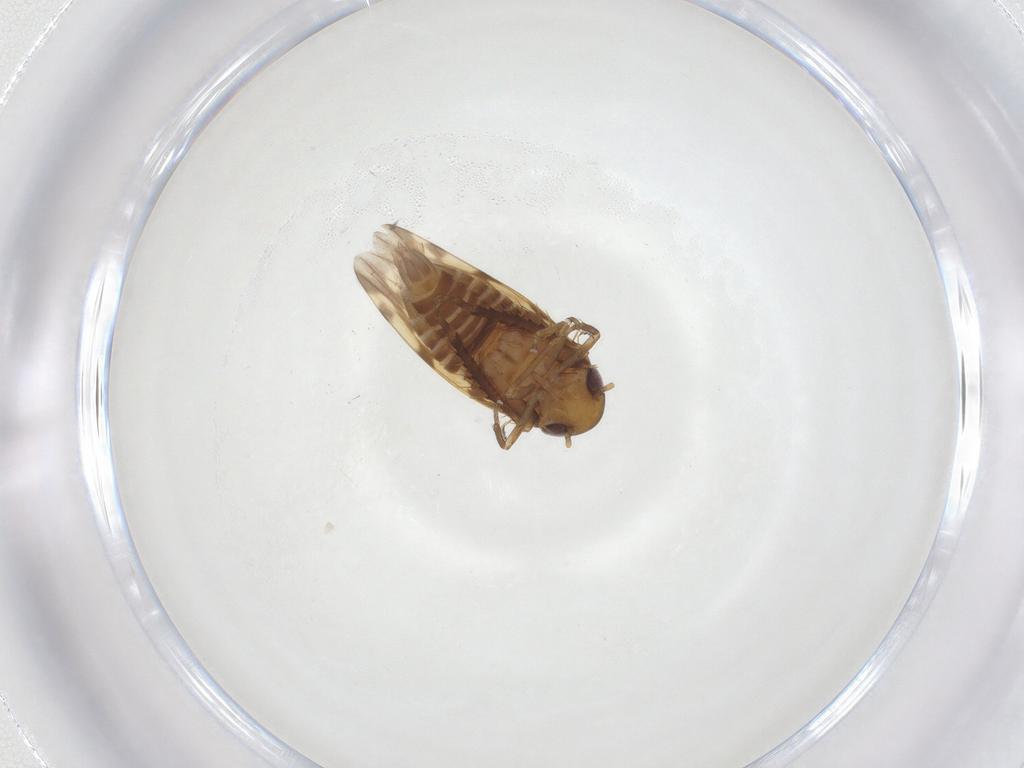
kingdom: Animalia
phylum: Arthropoda
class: Insecta
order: Hemiptera
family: Cicadellidae
